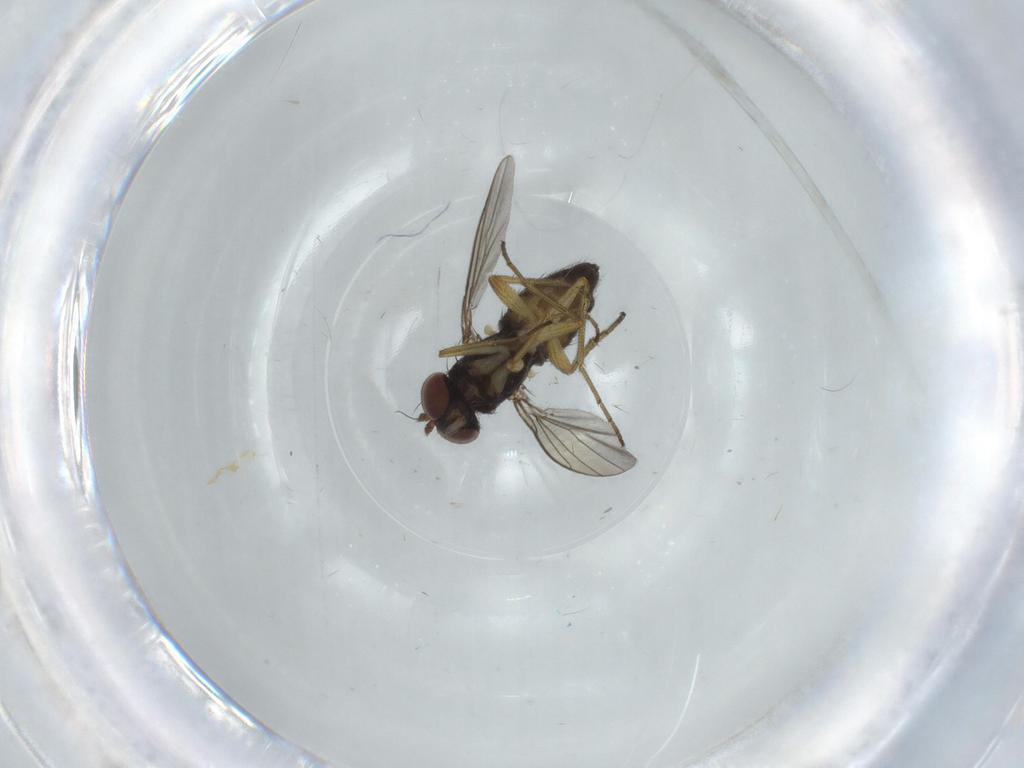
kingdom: Animalia
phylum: Arthropoda
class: Insecta
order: Diptera
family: Dolichopodidae
